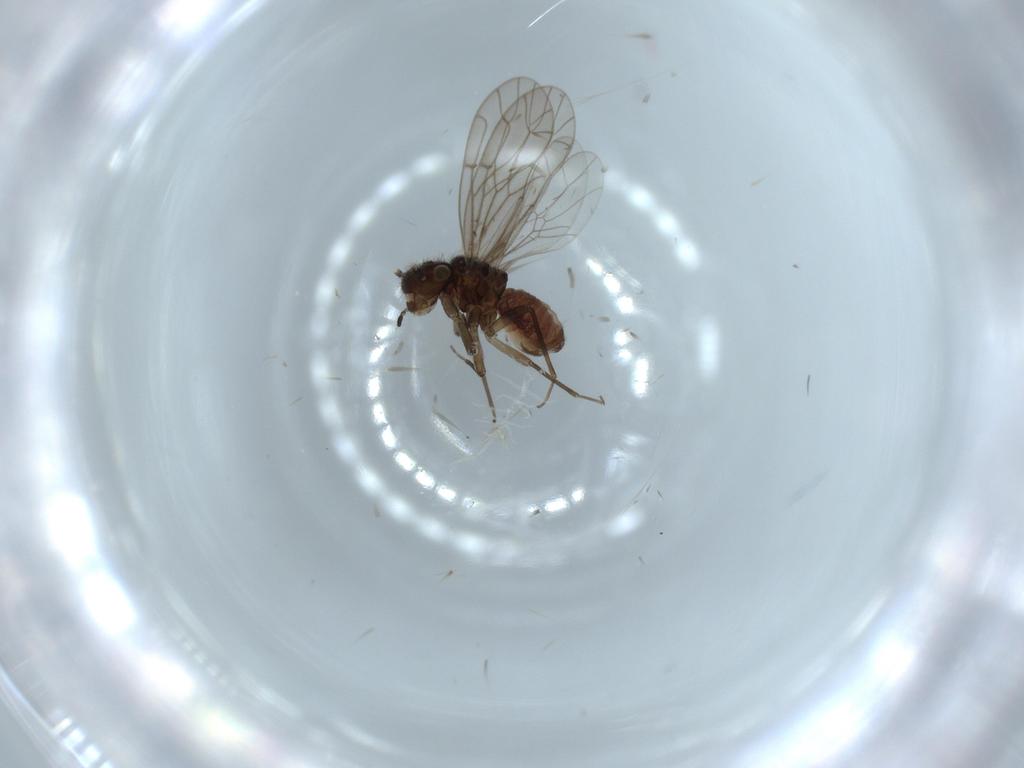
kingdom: Animalia
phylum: Arthropoda
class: Insecta
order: Psocodea
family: Ectopsocidae
